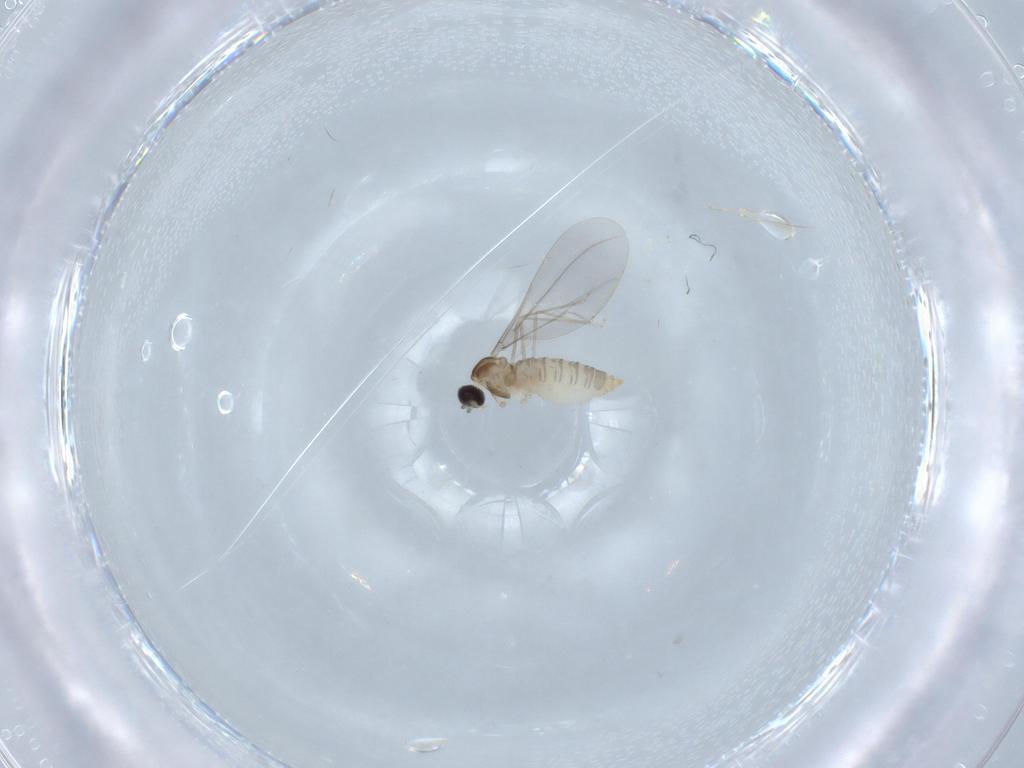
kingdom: Animalia
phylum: Arthropoda
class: Insecta
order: Diptera
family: Cecidomyiidae
